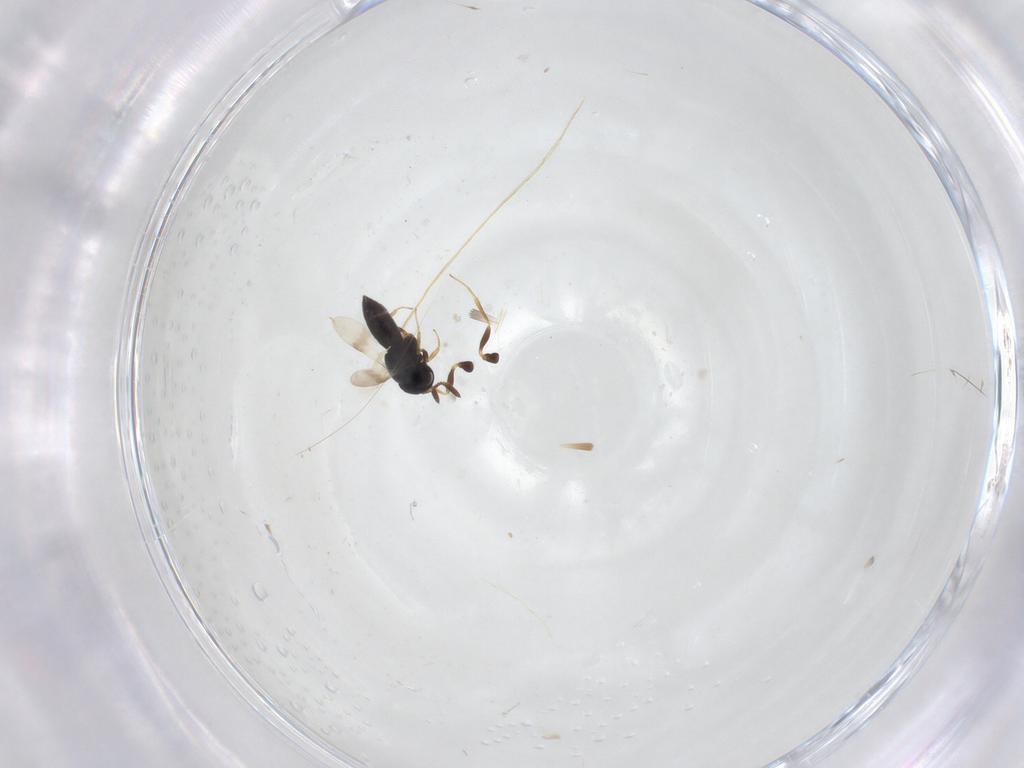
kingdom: Animalia
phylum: Arthropoda
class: Insecta
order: Hymenoptera
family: Scelionidae
